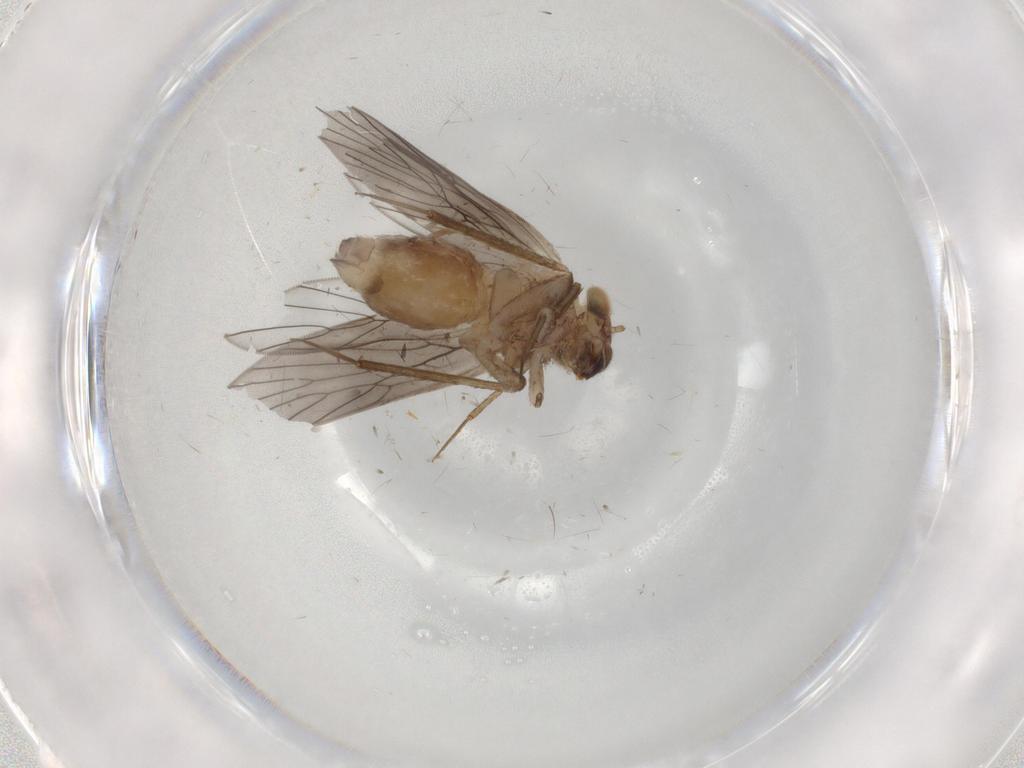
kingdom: Animalia
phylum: Arthropoda
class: Insecta
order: Psocodea
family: Lepidopsocidae
